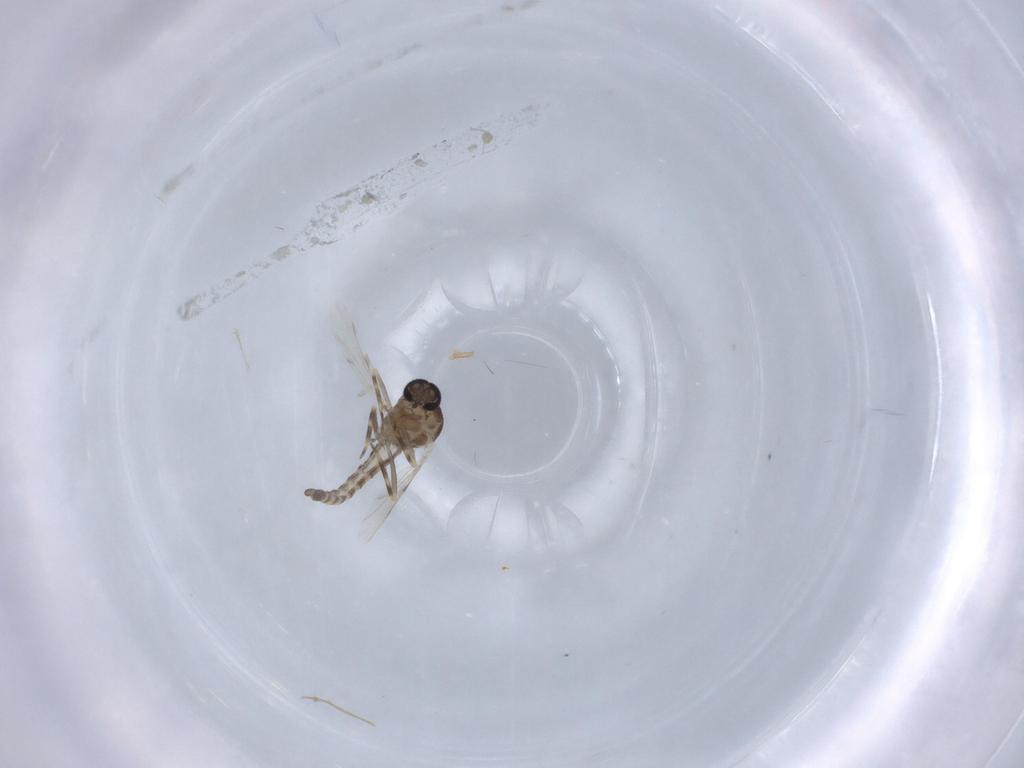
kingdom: Animalia
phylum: Arthropoda
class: Insecta
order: Diptera
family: Ceratopogonidae
